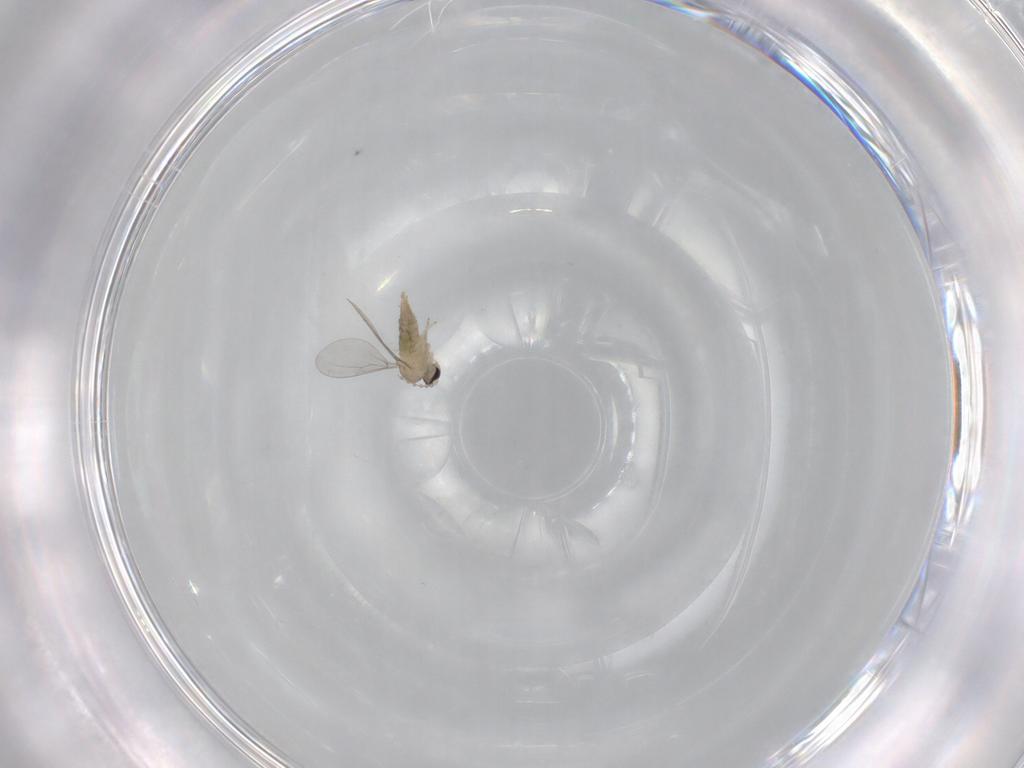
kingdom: Animalia
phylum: Arthropoda
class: Insecta
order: Diptera
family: Cecidomyiidae
